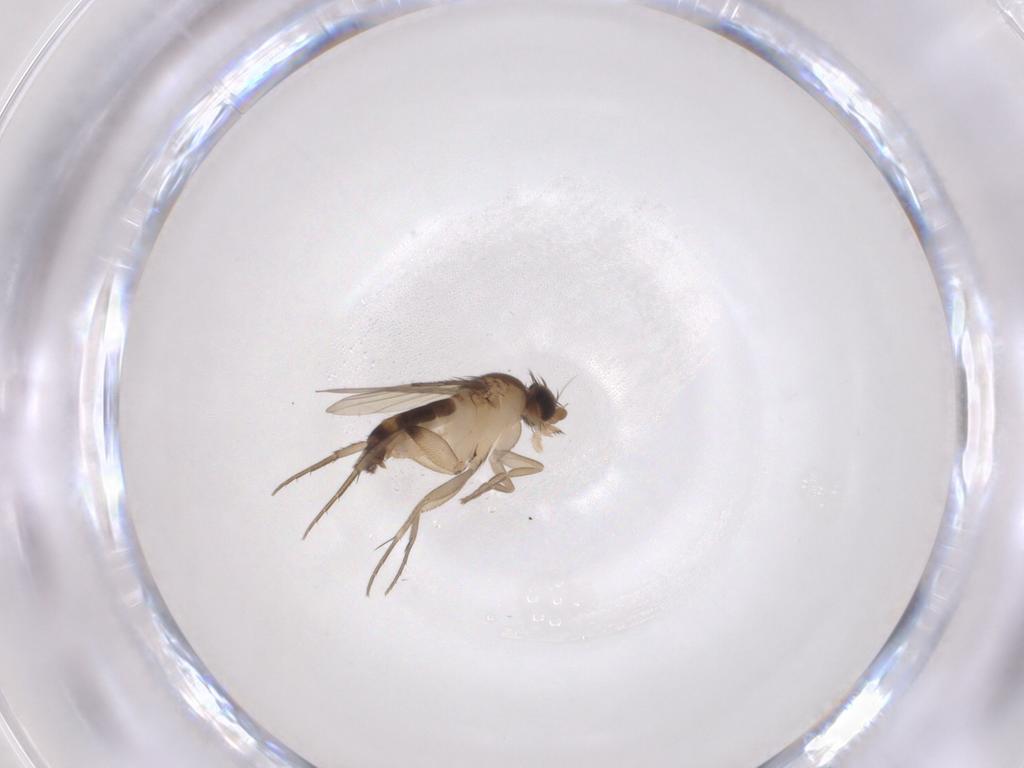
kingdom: Animalia
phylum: Arthropoda
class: Insecta
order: Diptera
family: Phoridae
